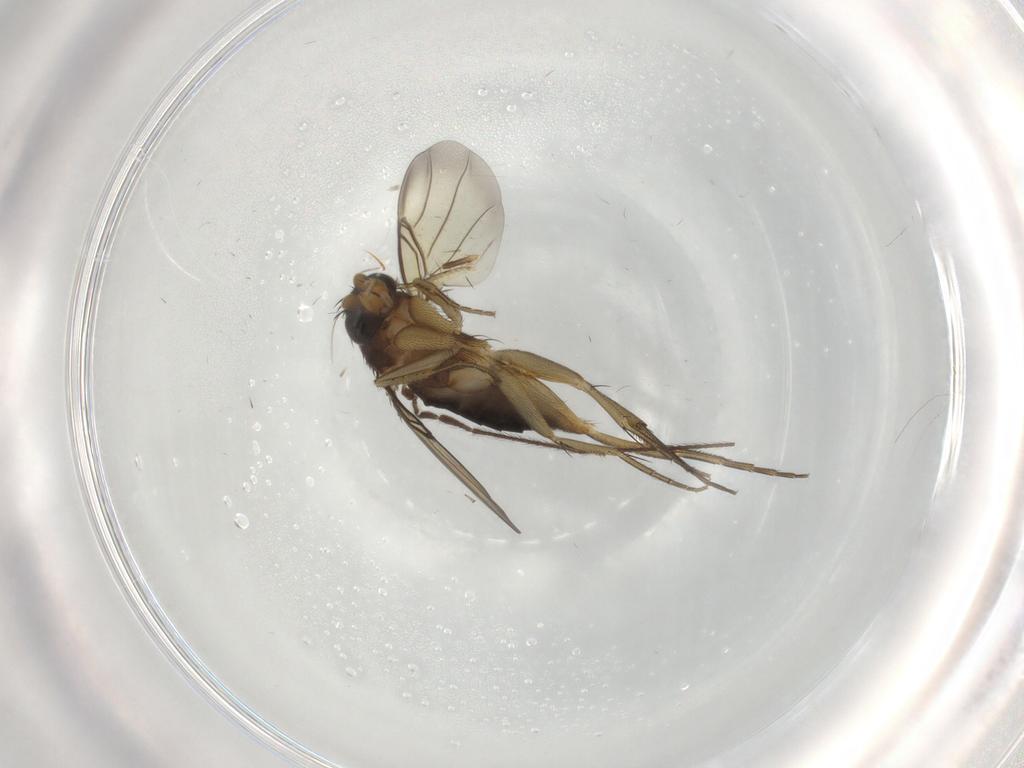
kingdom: Animalia
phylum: Arthropoda
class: Insecta
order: Diptera
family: Phoridae
